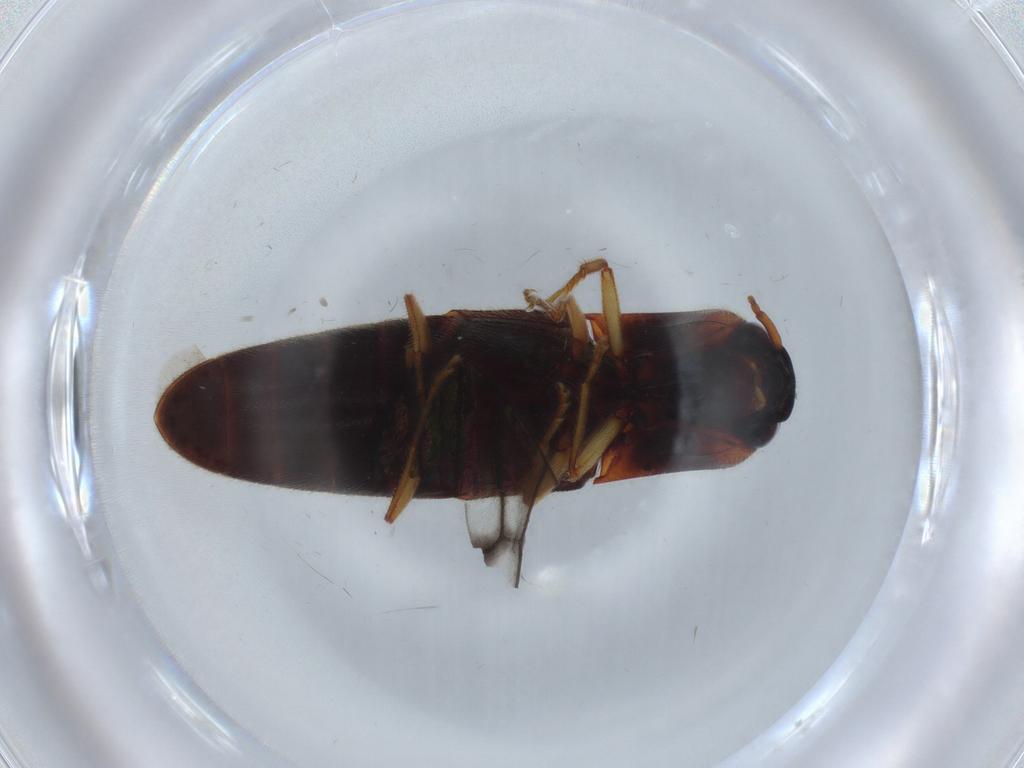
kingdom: Animalia
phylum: Arthropoda
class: Insecta
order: Coleoptera
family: Elateridae
